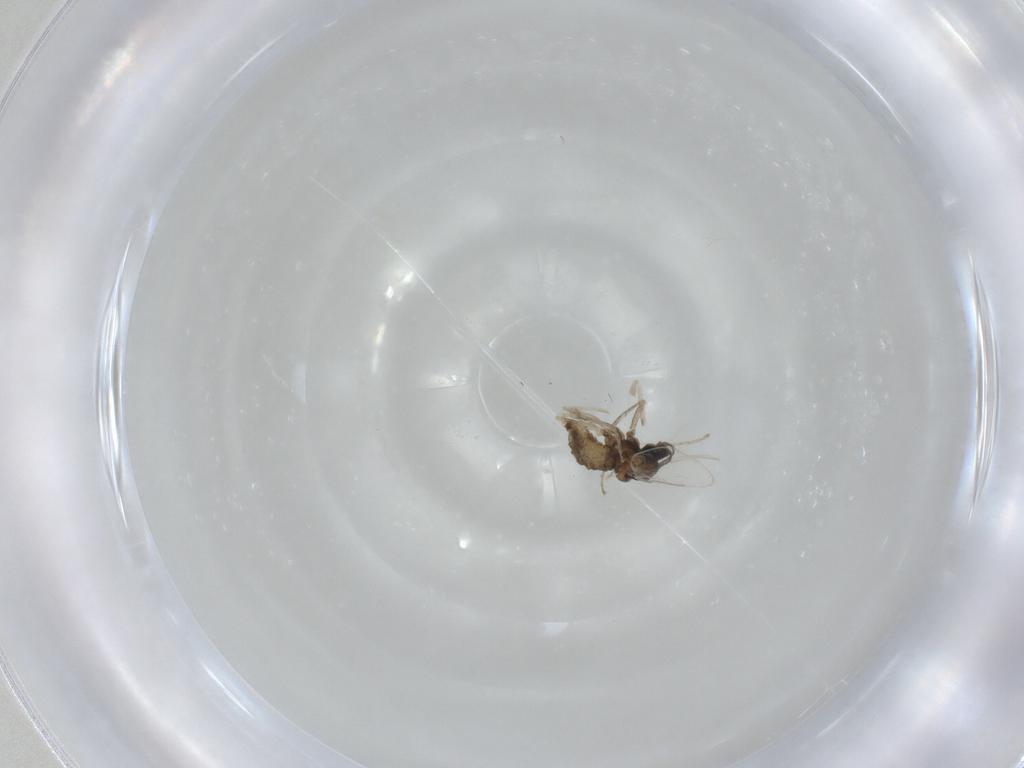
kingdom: Animalia
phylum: Arthropoda
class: Insecta
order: Diptera
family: Cecidomyiidae
